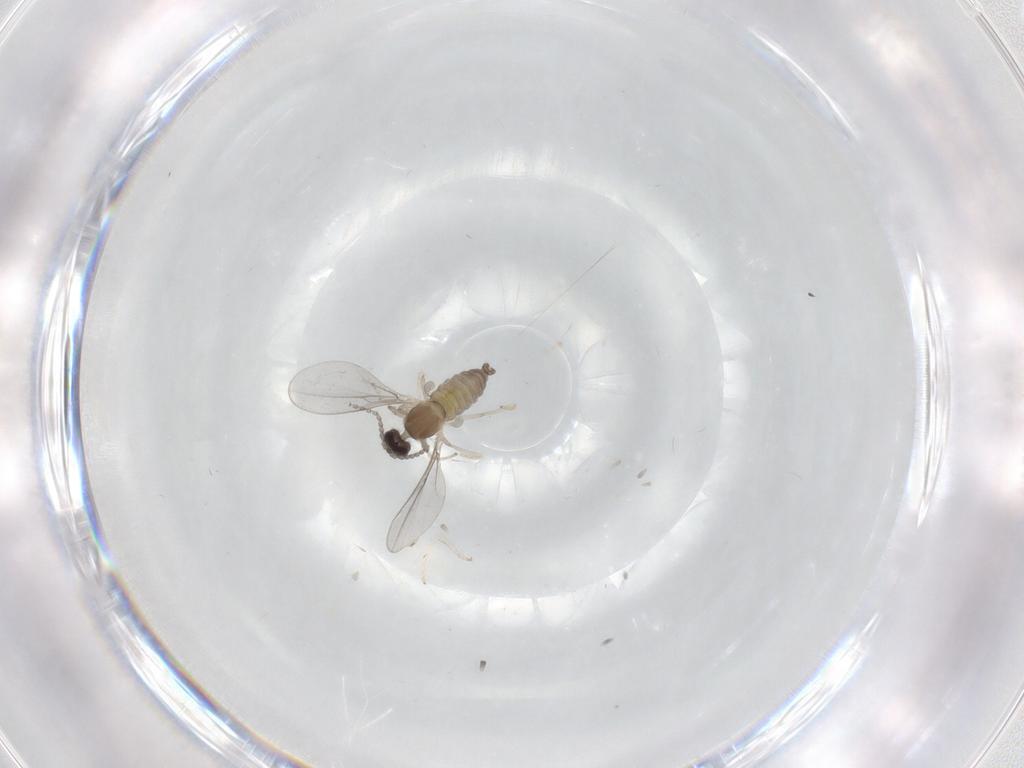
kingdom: Animalia
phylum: Arthropoda
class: Insecta
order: Diptera
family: Cecidomyiidae
